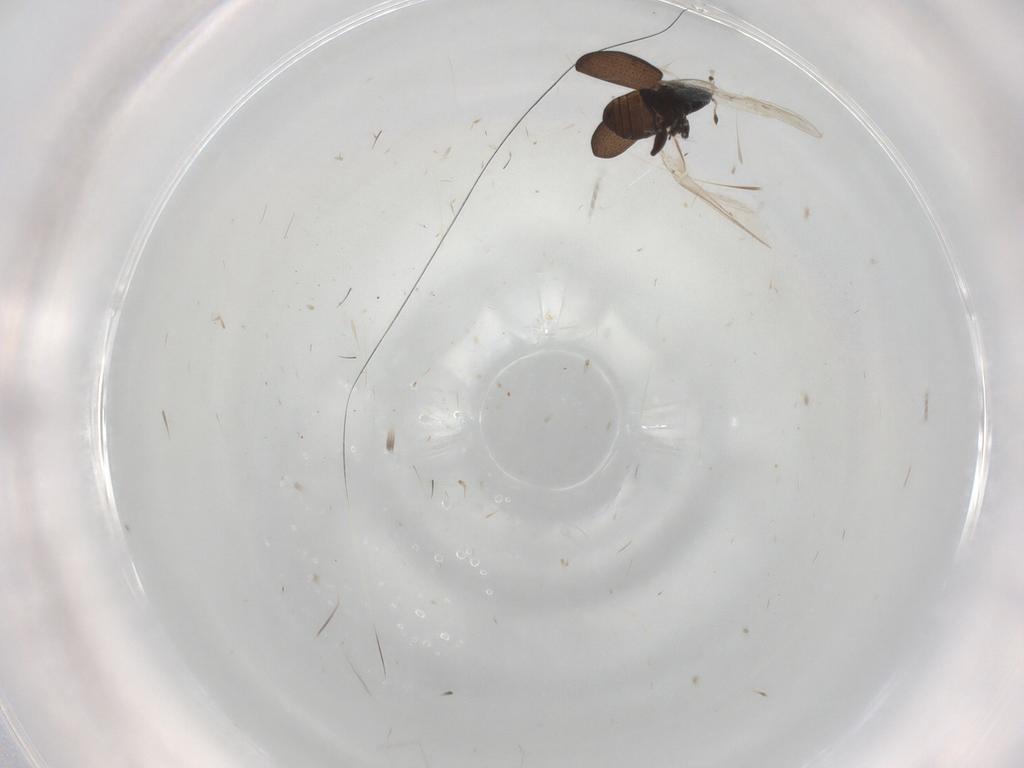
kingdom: Animalia
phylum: Arthropoda
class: Insecta
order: Coleoptera
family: Curculionidae
